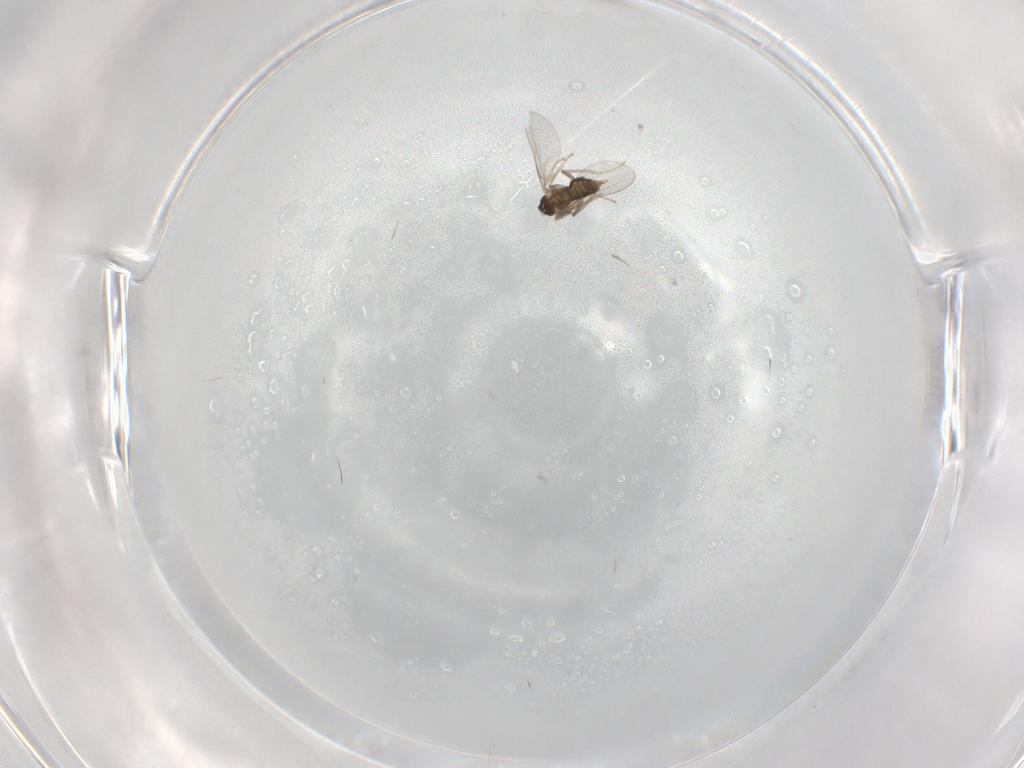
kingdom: Animalia
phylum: Arthropoda
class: Insecta
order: Diptera
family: Cecidomyiidae
